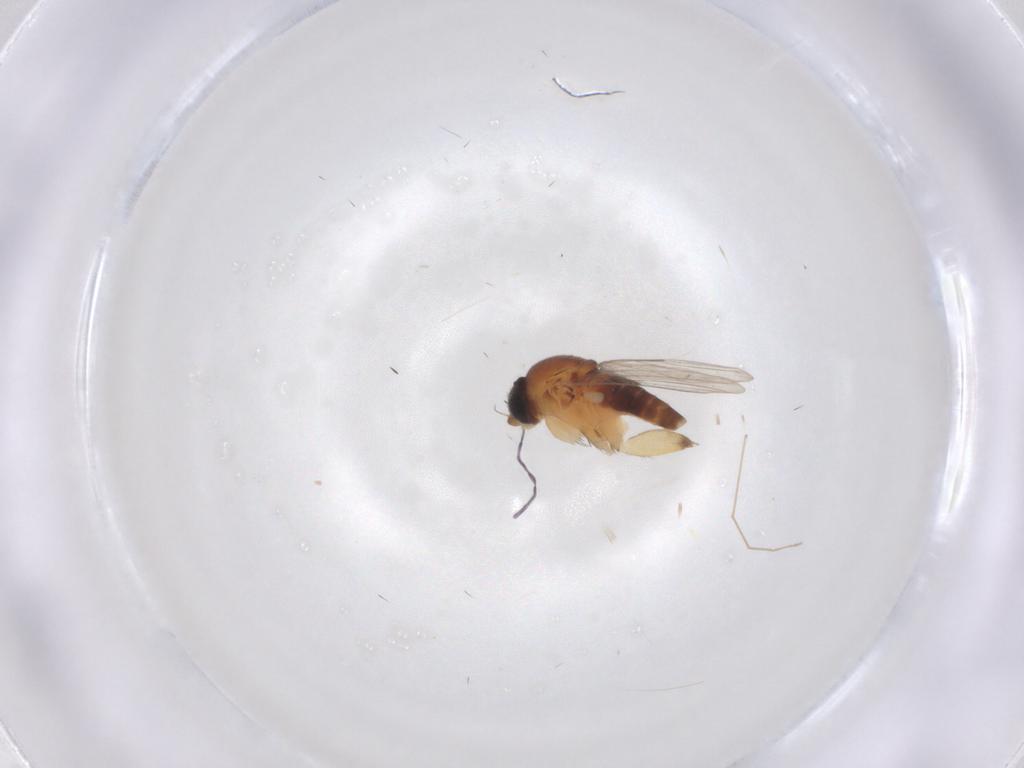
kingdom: Animalia
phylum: Arthropoda
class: Insecta
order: Diptera
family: Phoridae
